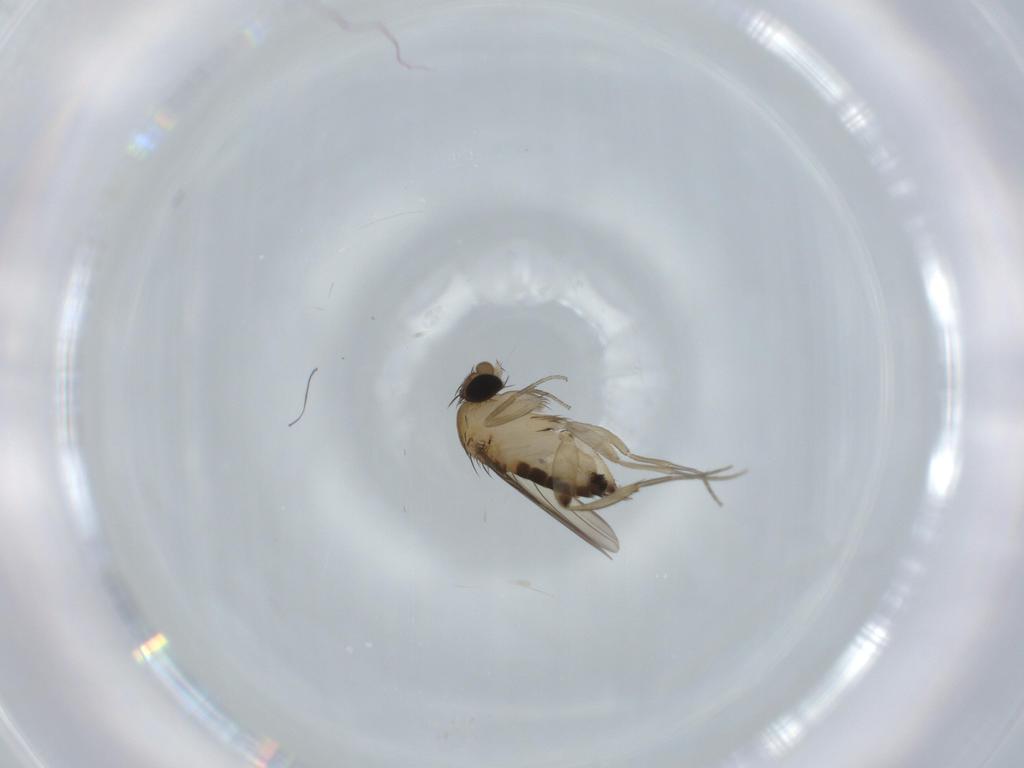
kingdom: Animalia
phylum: Arthropoda
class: Insecta
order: Diptera
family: Phoridae
